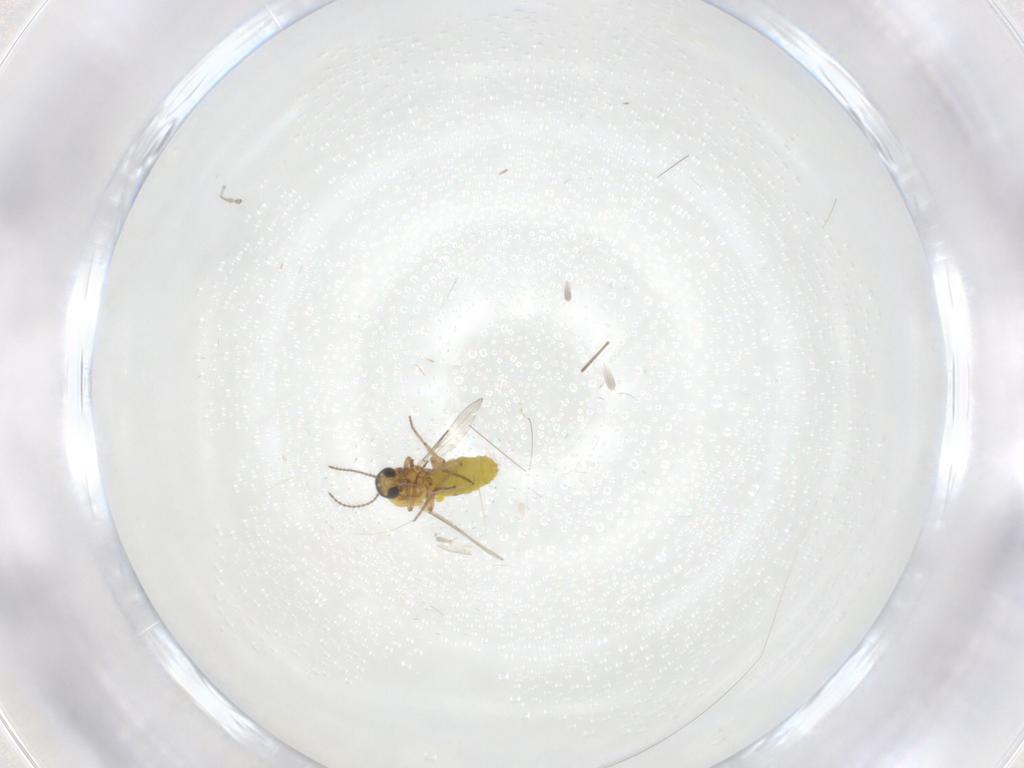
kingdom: Animalia
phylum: Arthropoda
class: Insecta
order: Diptera
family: Cecidomyiidae
